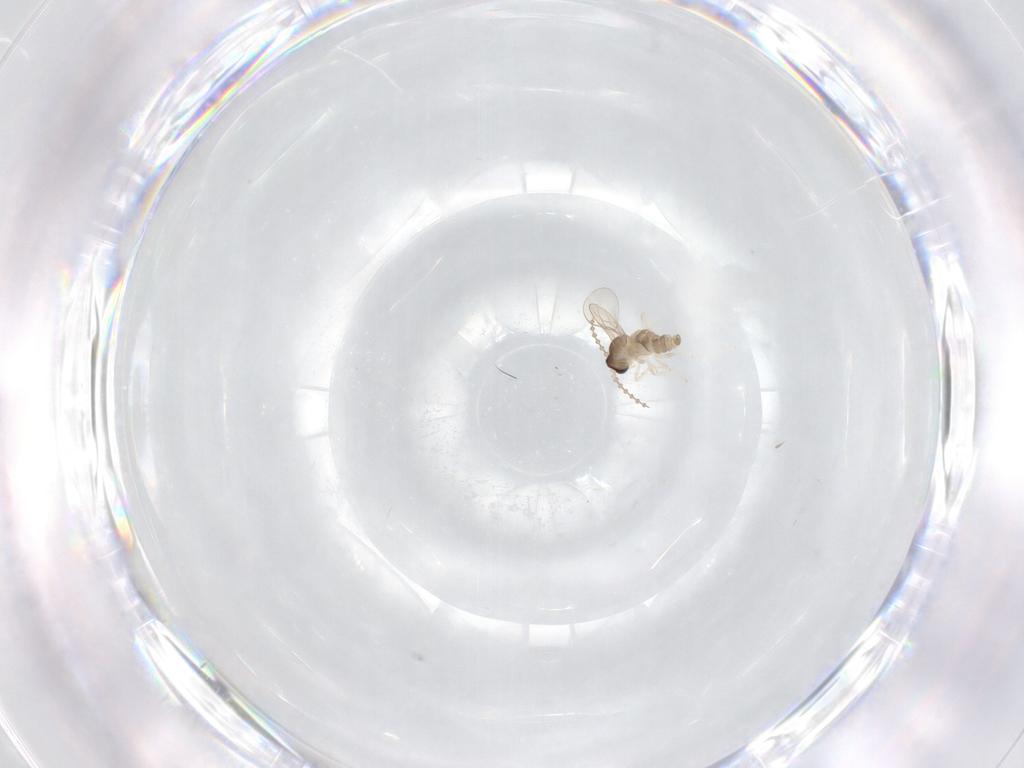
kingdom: Animalia
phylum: Arthropoda
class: Insecta
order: Diptera
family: Cecidomyiidae
